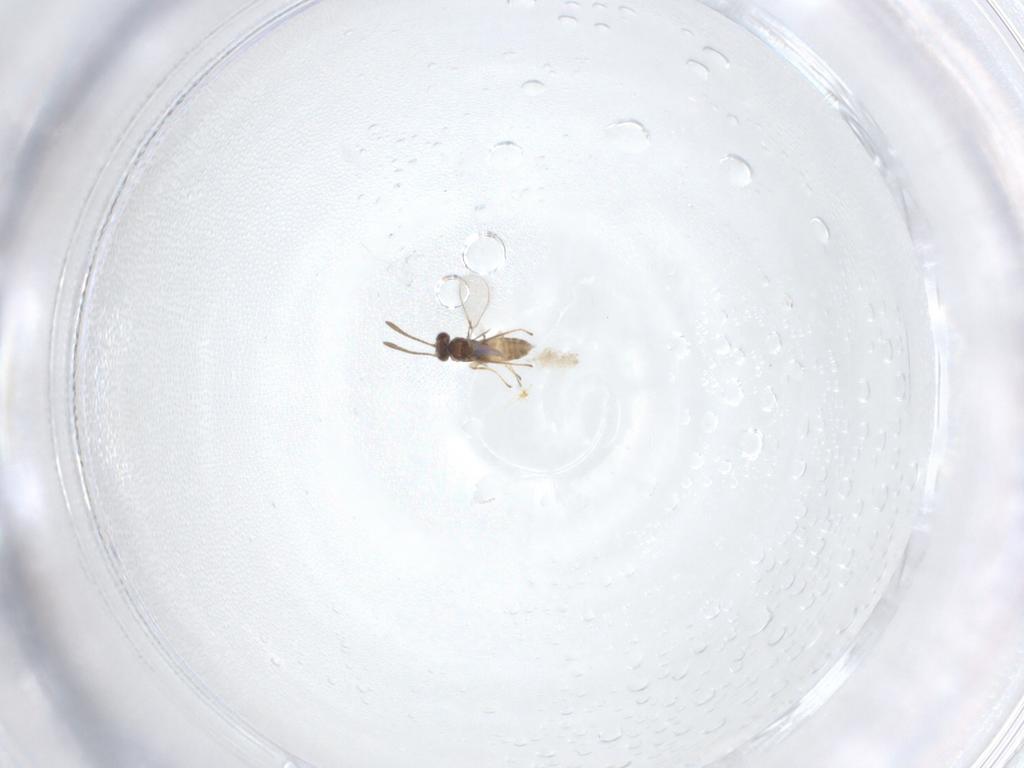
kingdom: Animalia
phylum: Arthropoda
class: Insecta
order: Hymenoptera
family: Mymaridae
